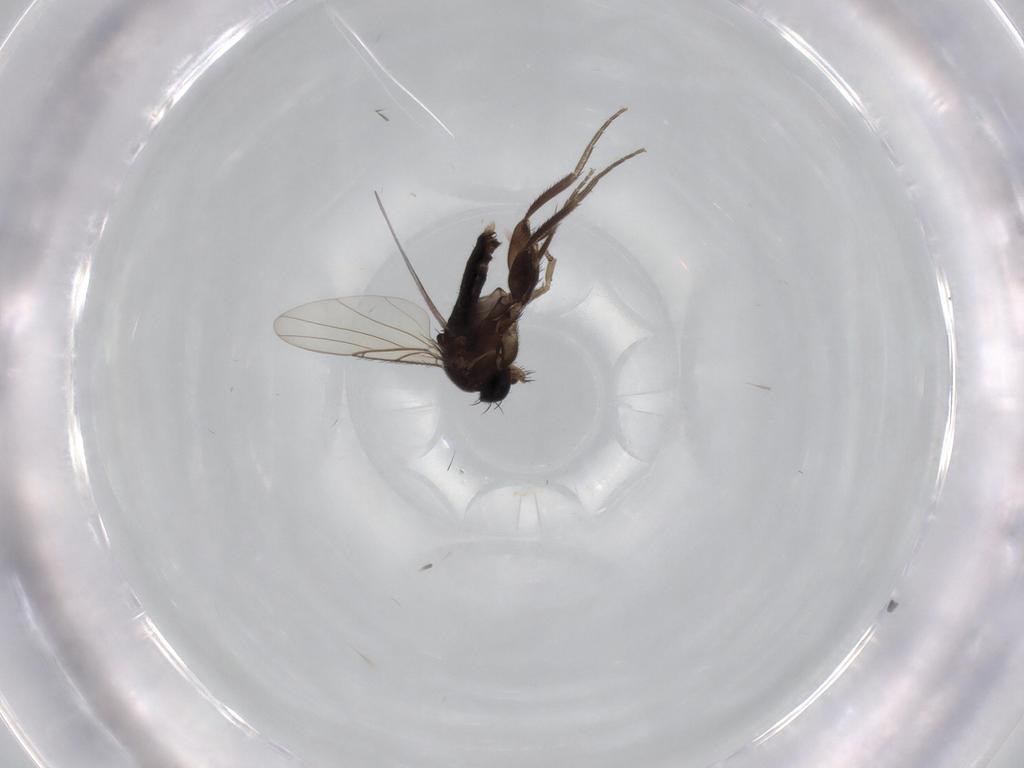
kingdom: Animalia
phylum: Arthropoda
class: Insecta
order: Diptera
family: Phoridae
